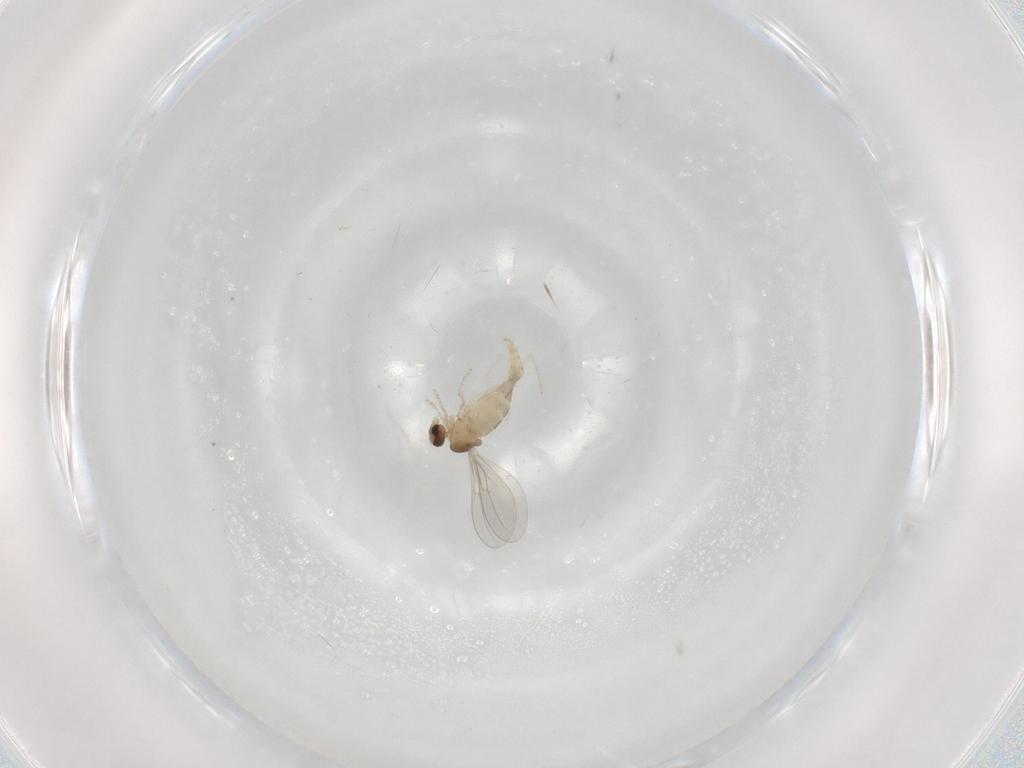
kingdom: Animalia
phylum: Arthropoda
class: Insecta
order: Diptera
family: Cecidomyiidae
